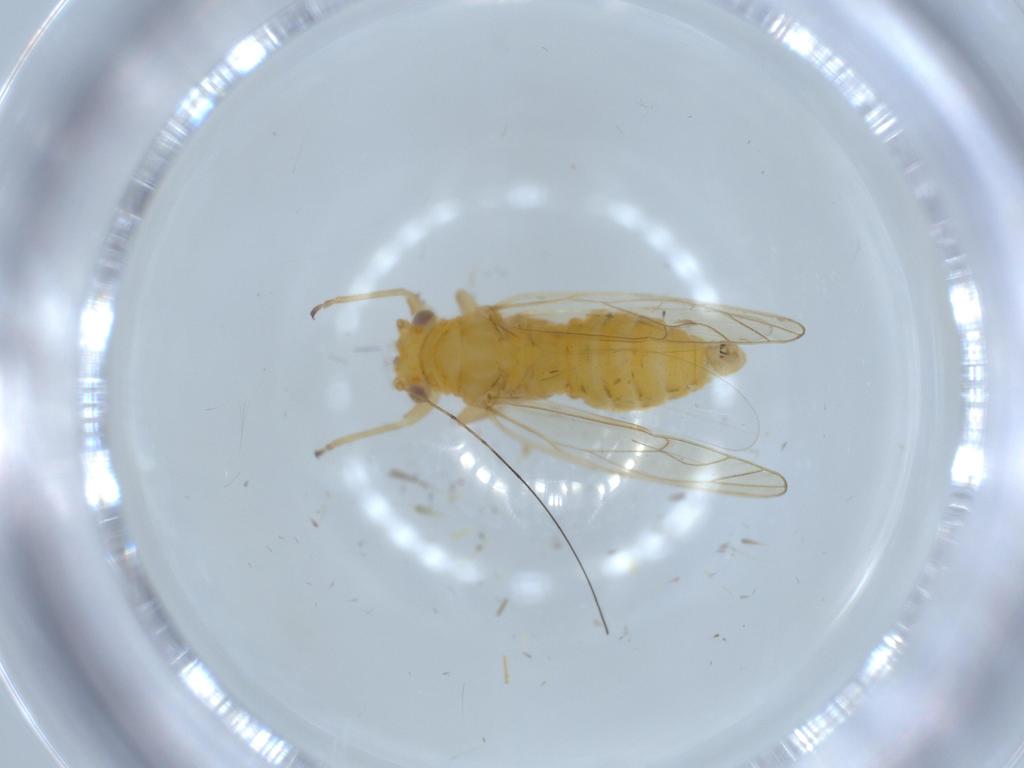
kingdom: Animalia
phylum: Arthropoda
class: Insecta
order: Hemiptera
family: Psyllidae
